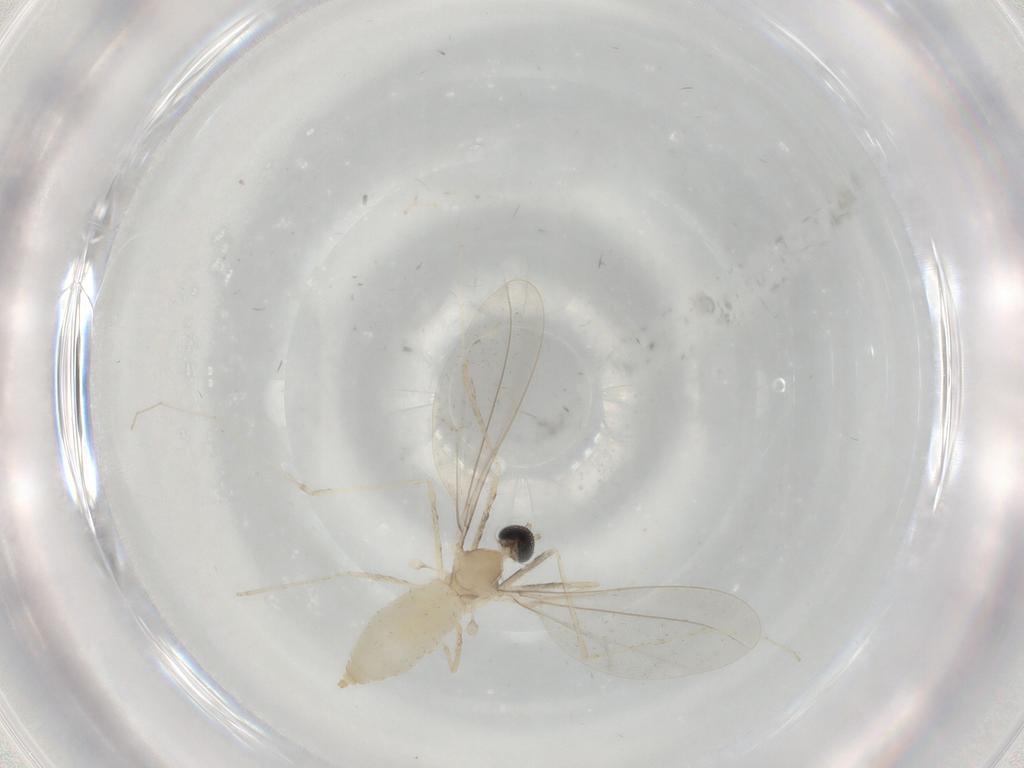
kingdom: Animalia
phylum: Arthropoda
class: Insecta
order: Diptera
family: Cecidomyiidae
